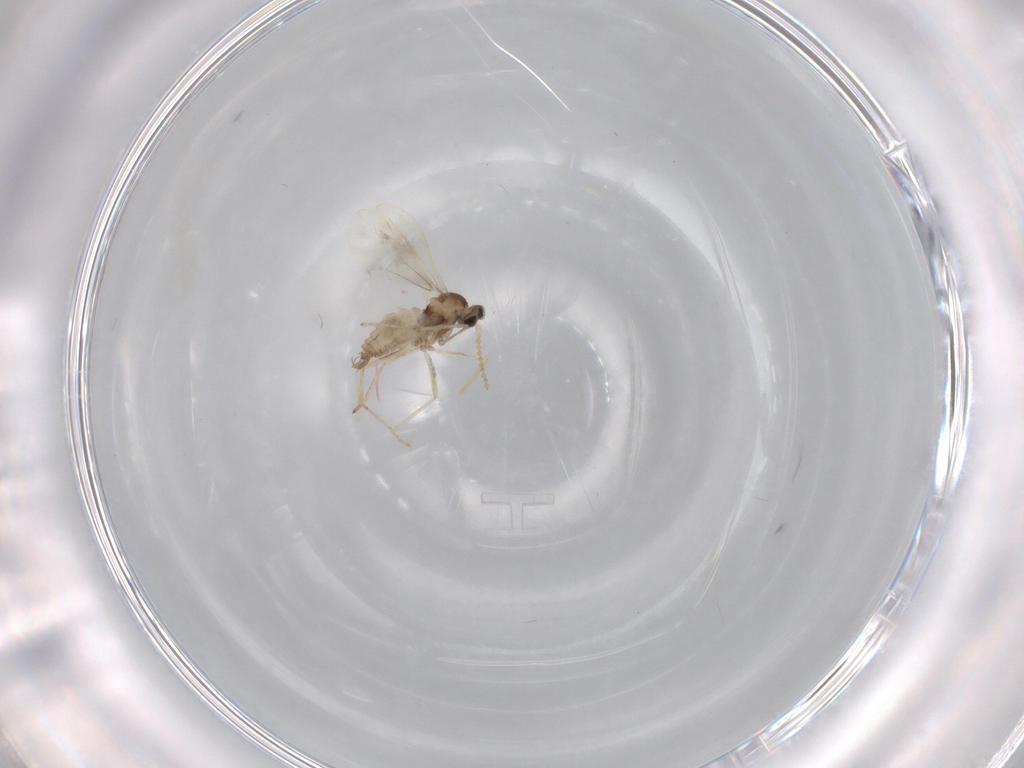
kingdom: Animalia
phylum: Arthropoda
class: Insecta
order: Diptera
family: Cecidomyiidae
